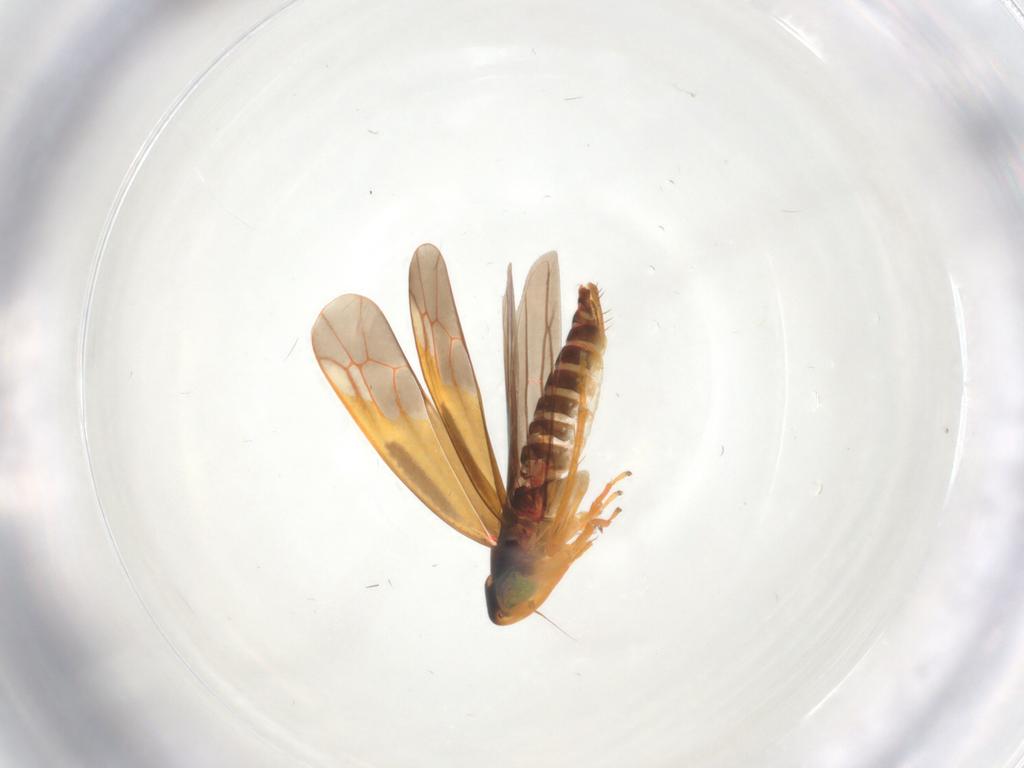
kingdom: Animalia
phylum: Arthropoda
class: Insecta
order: Hemiptera
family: Cicadellidae
